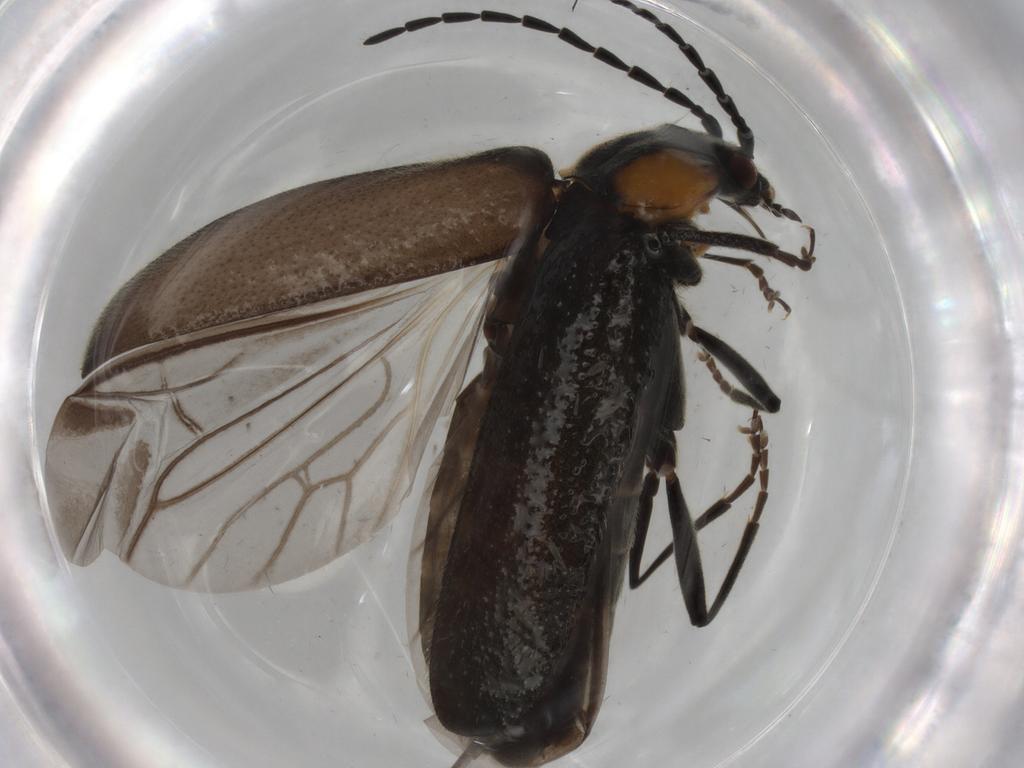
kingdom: Animalia
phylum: Arthropoda
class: Insecta
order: Coleoptera
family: Cantharidae
